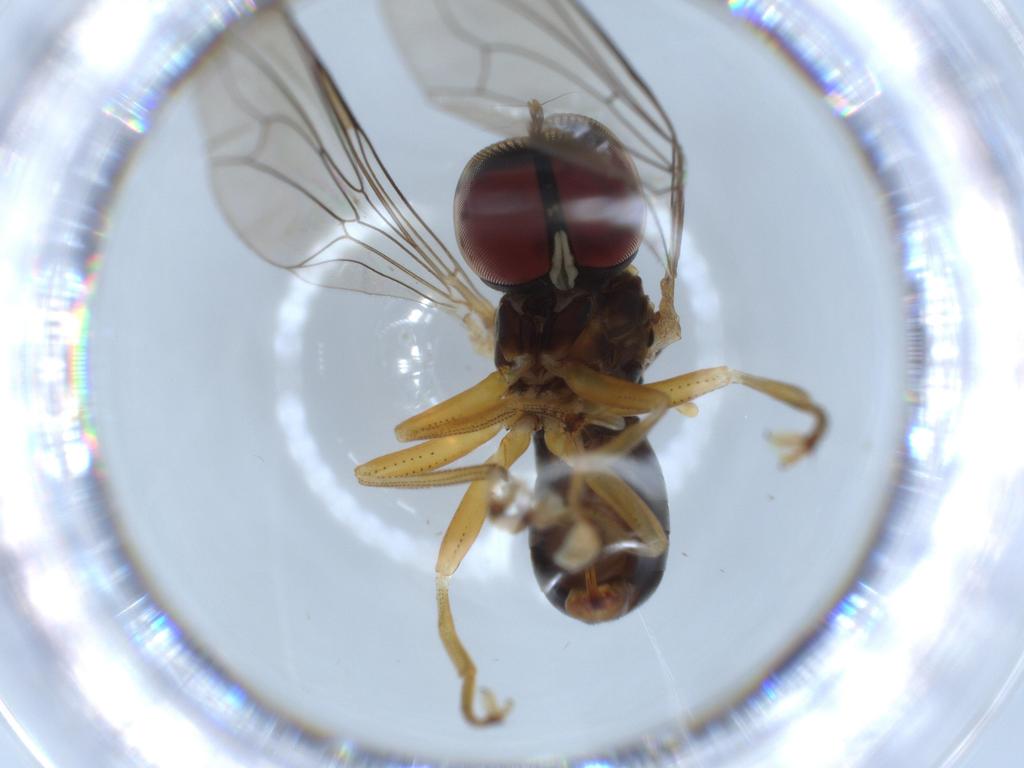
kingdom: Animalia
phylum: Arthropoda
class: Insecta
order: Diptera
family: Pipunculidae
